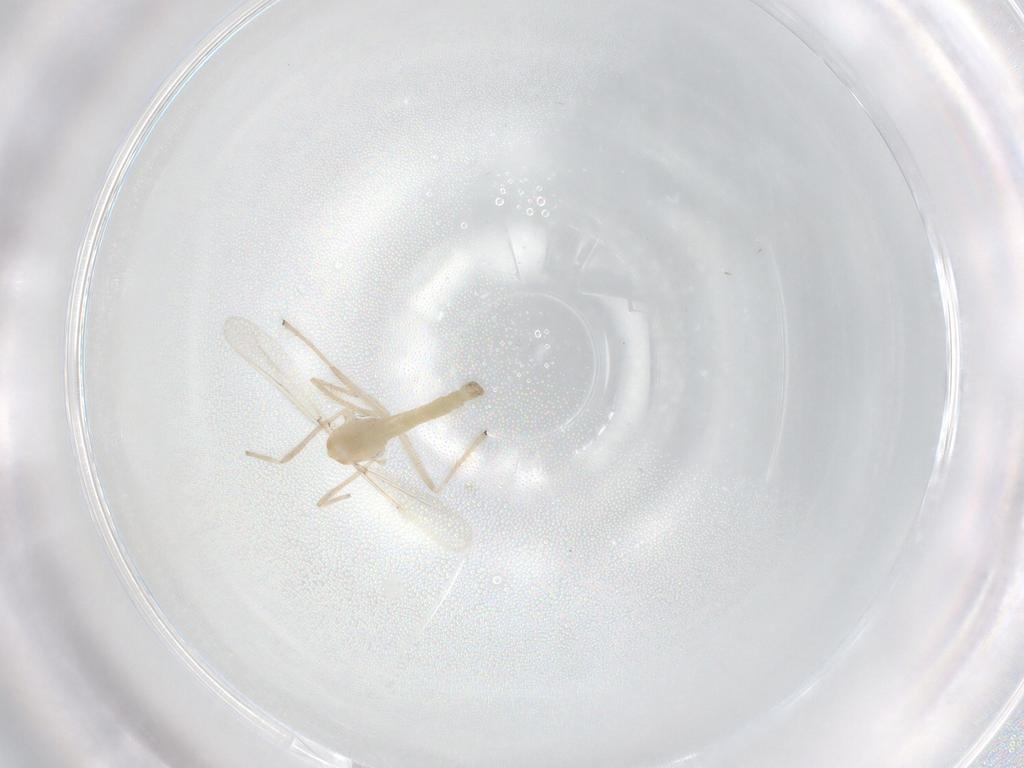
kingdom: Animalia
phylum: Arthropoda
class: Insecta
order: Diptera
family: Chironomidae
